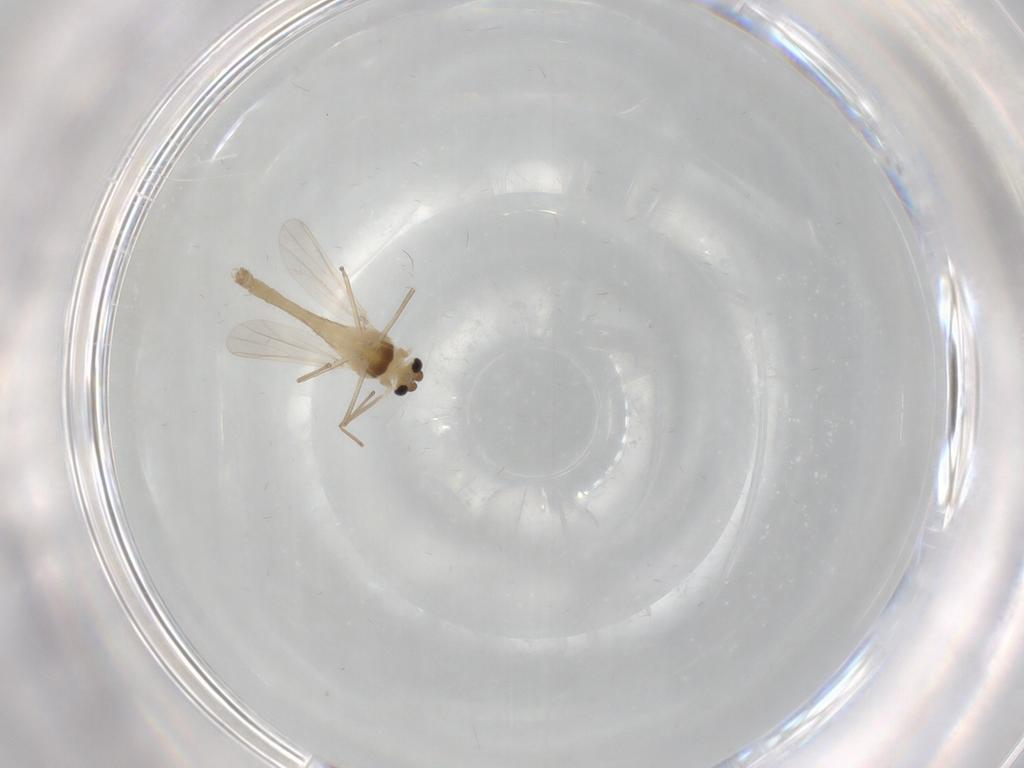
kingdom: Animalia
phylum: Arthropoda
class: Insecta
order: Diptera
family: Chironomidae
